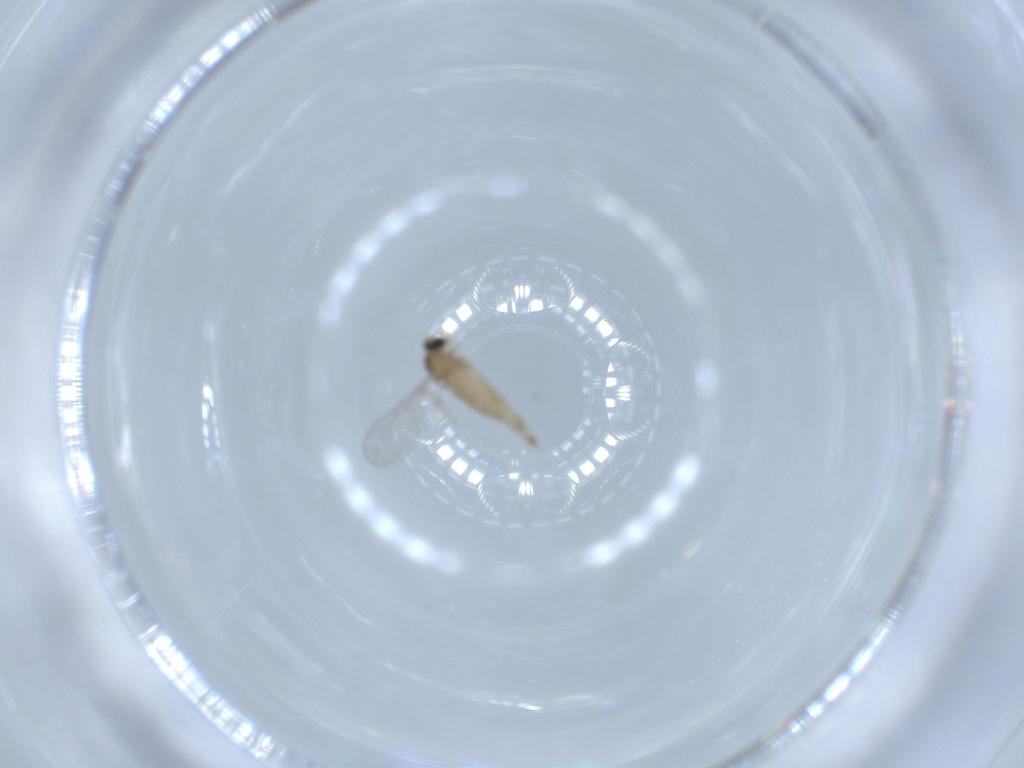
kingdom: Animalia
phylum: Arthropoda
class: Insecta
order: Diptera
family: Cecidomyiidae
